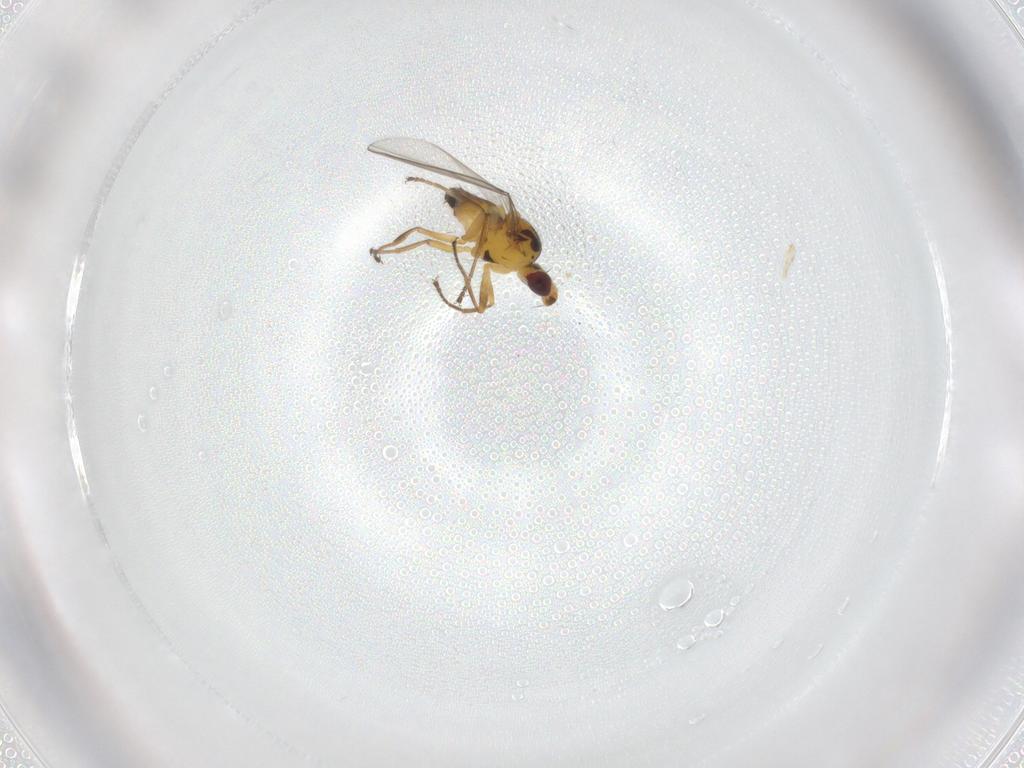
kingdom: Animalia
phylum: Arthropoda
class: Insecta
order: Diptera
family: Chloropidae
